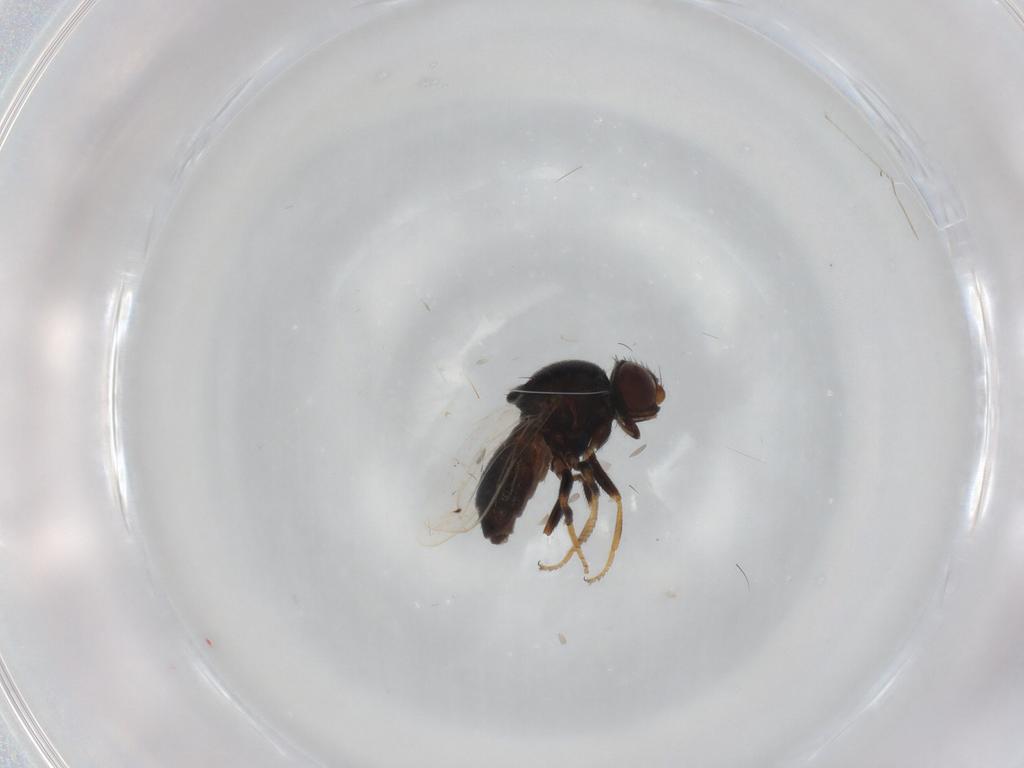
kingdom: Animalia
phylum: Arthropoda
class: Insecta
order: Diptera
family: Chloropidae
